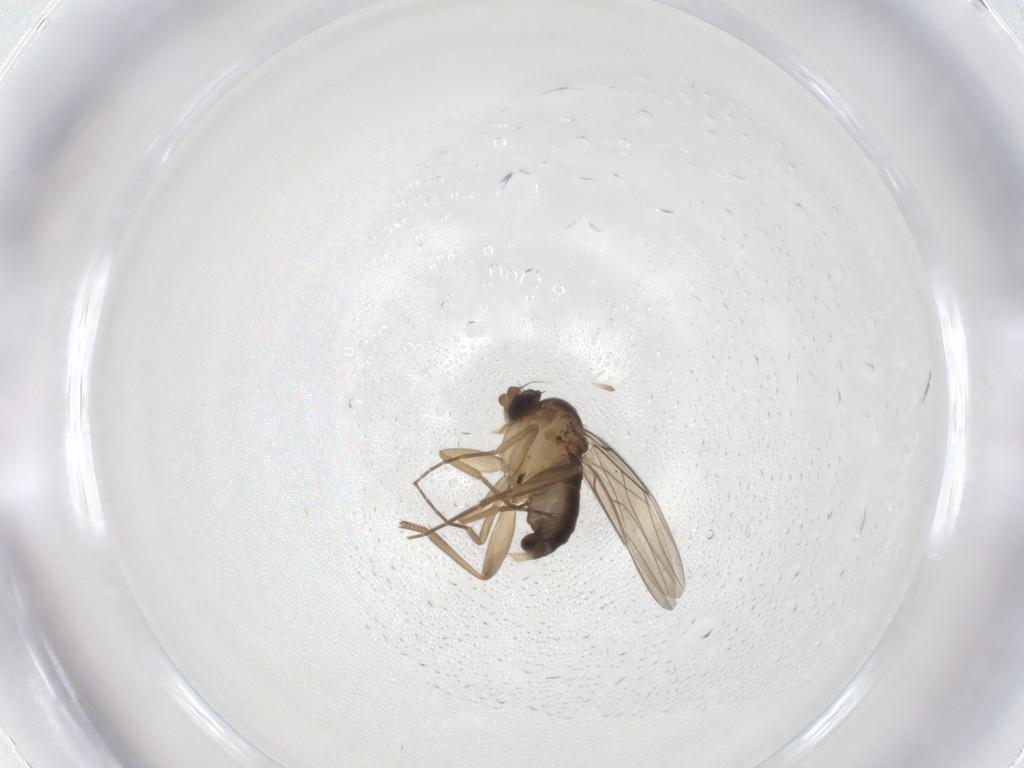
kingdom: Animalia
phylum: Arthropoda
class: Insecta
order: Diptera
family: Phoridae
